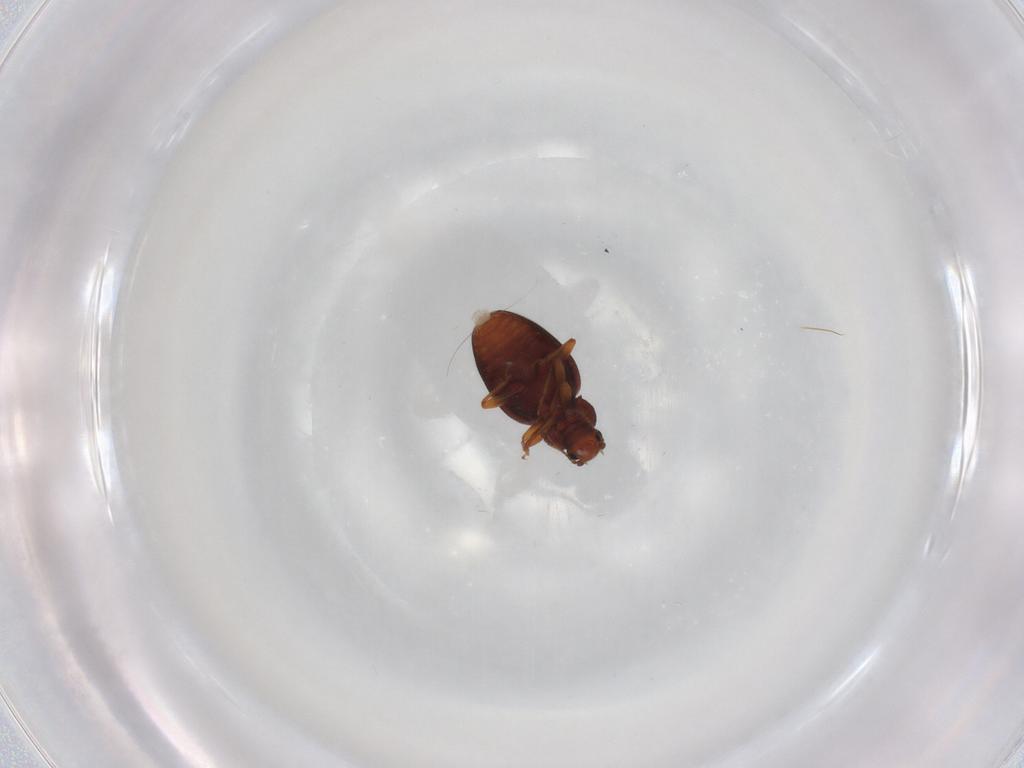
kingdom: Animalia
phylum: Arthropoda
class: Insecta
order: Coleoptera
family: Latridiidae
